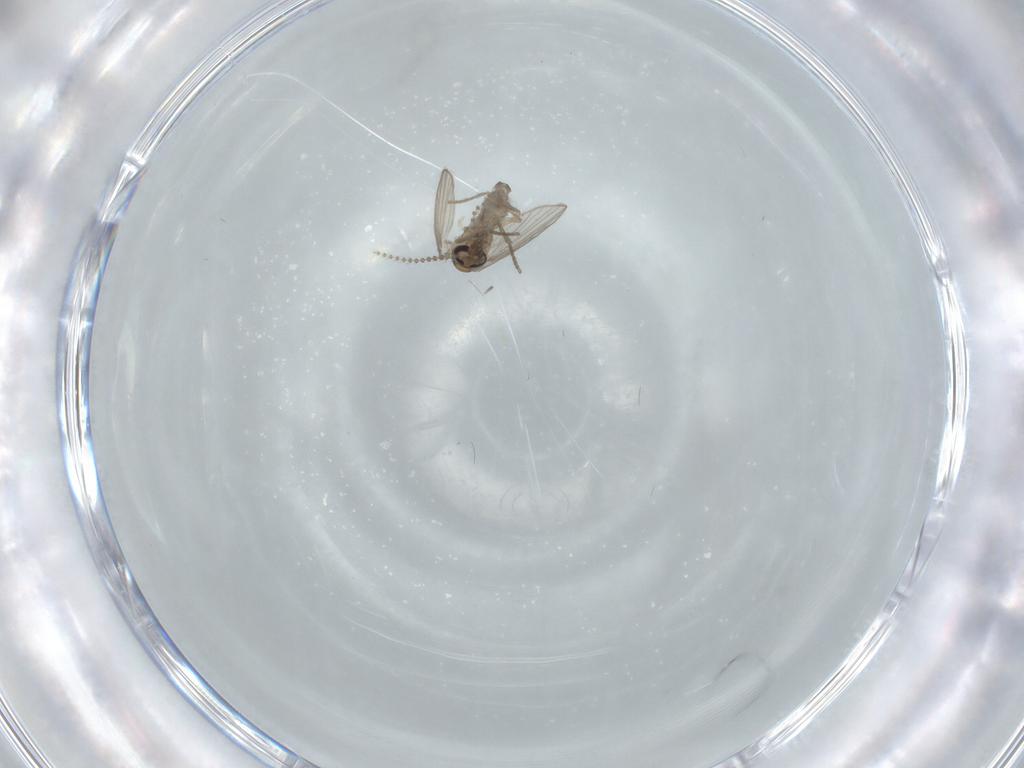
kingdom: Animalia
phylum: Arthropoda
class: Insecta
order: Diptera
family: Psychodidae
